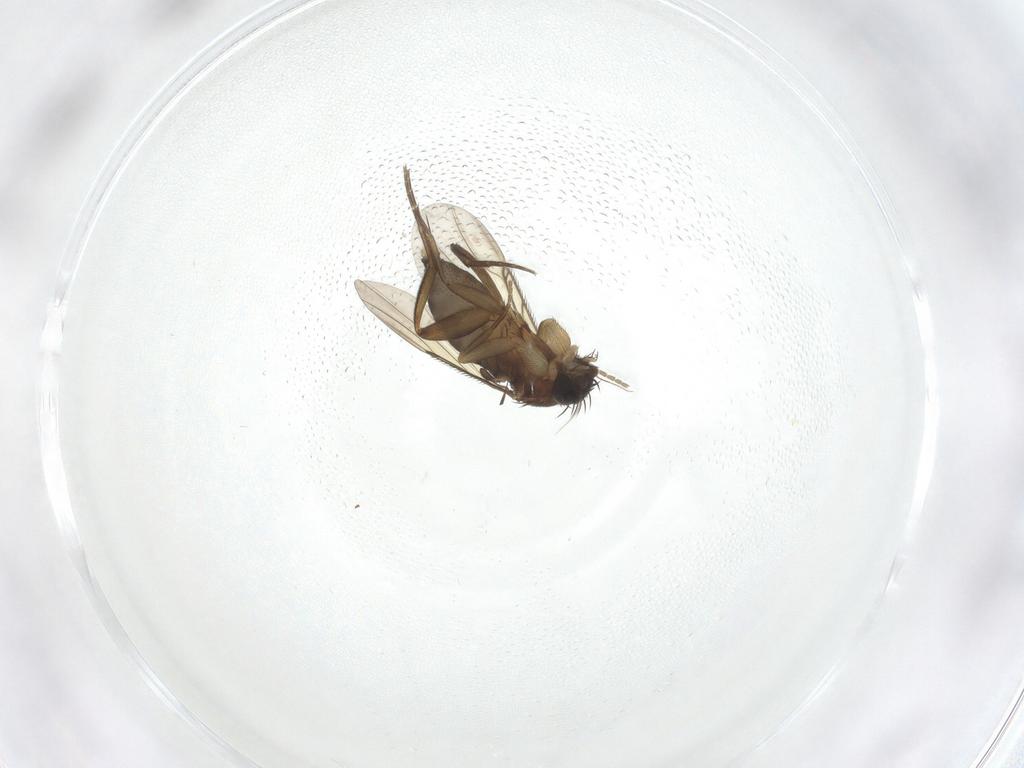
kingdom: Animalia
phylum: Arthropoda
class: Insecta
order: Diptera
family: Phoridae
